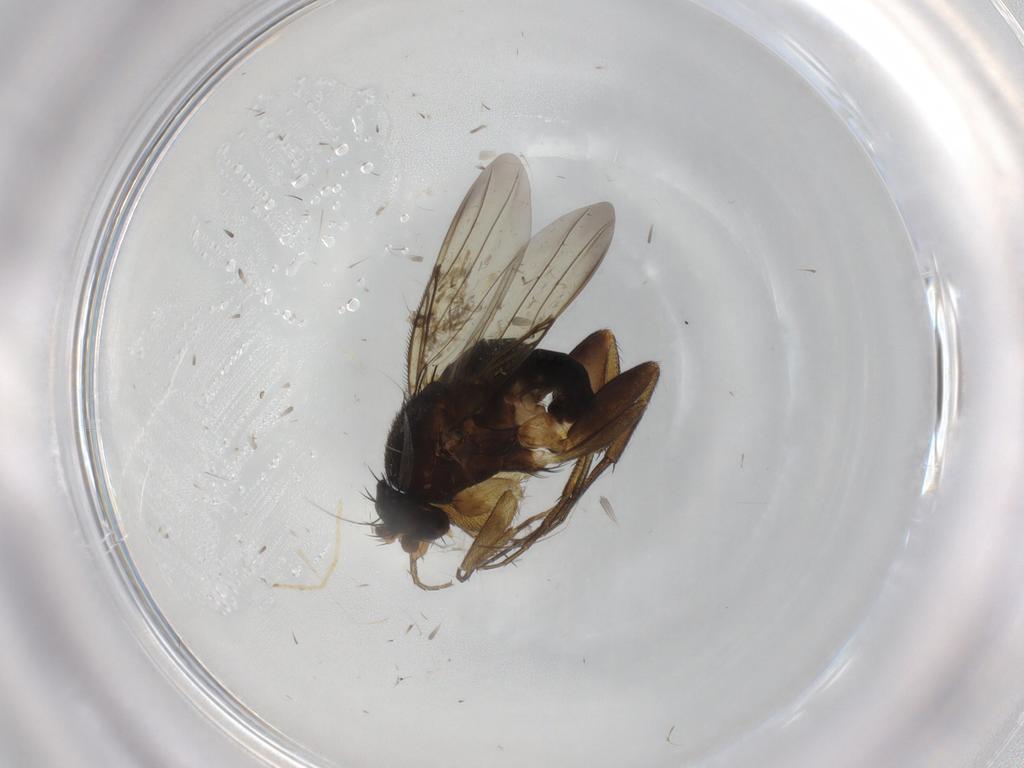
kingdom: Animalia
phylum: Arthropoda
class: Insecta
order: Diptera
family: Phoridae
